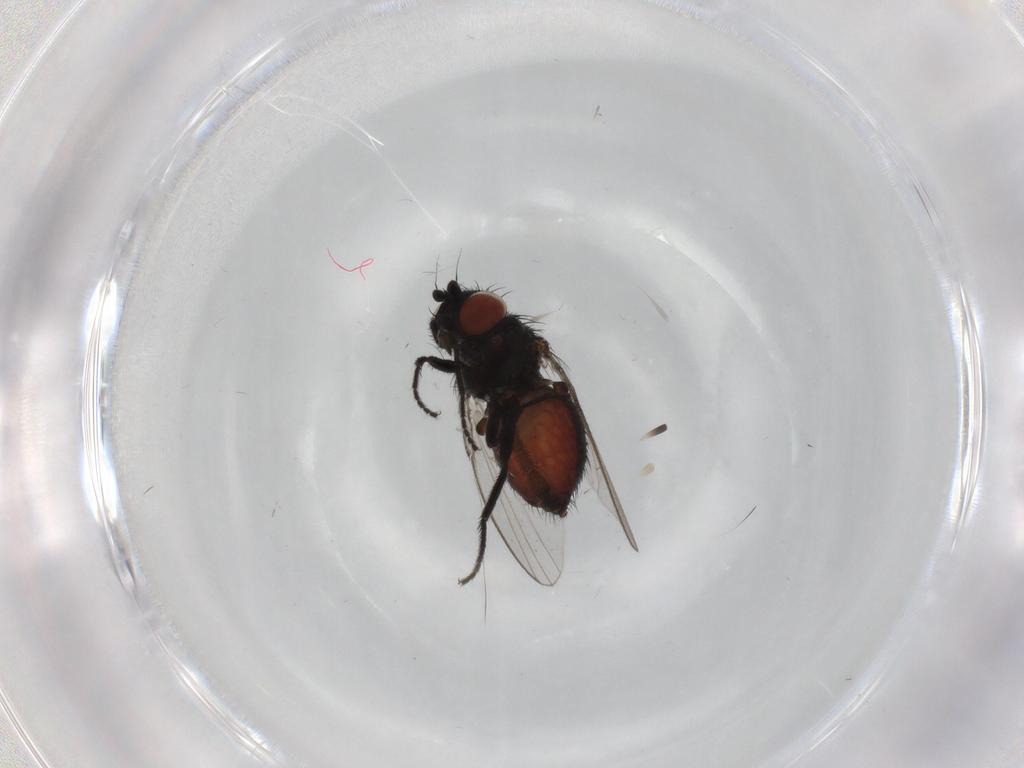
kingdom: Animalia
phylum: Arthropoda
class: Insecta
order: Diptera
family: Milichiidae
